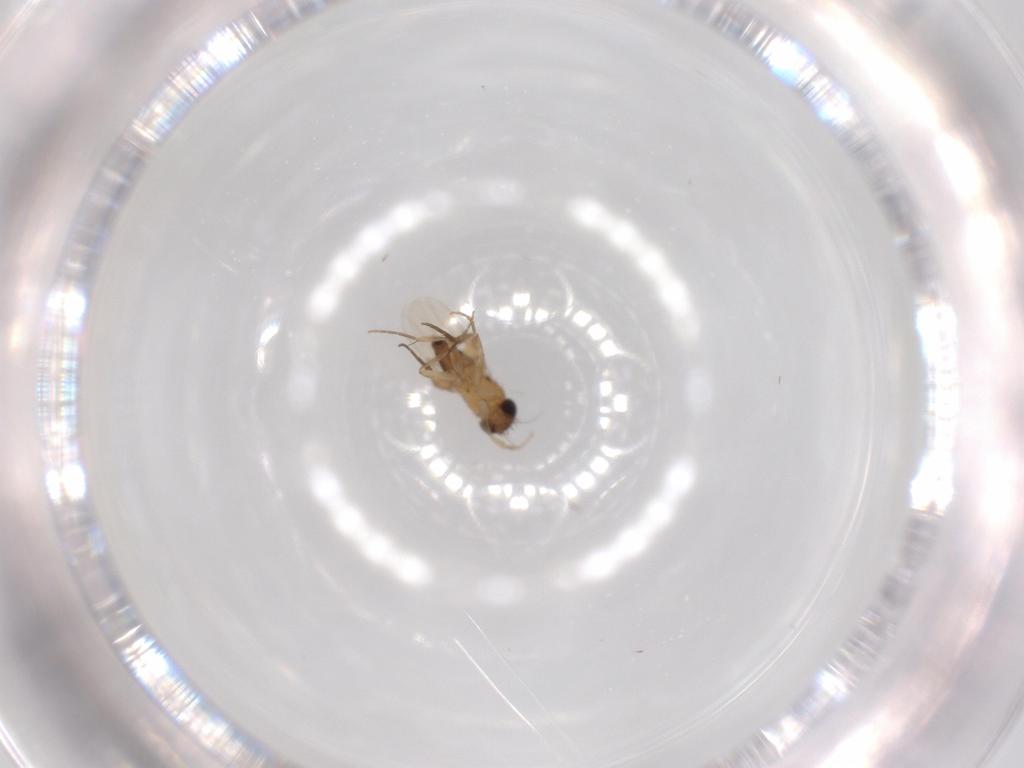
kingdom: Animalia
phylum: Arthropoda
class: Insecta
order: Diptera
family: Phoridae
